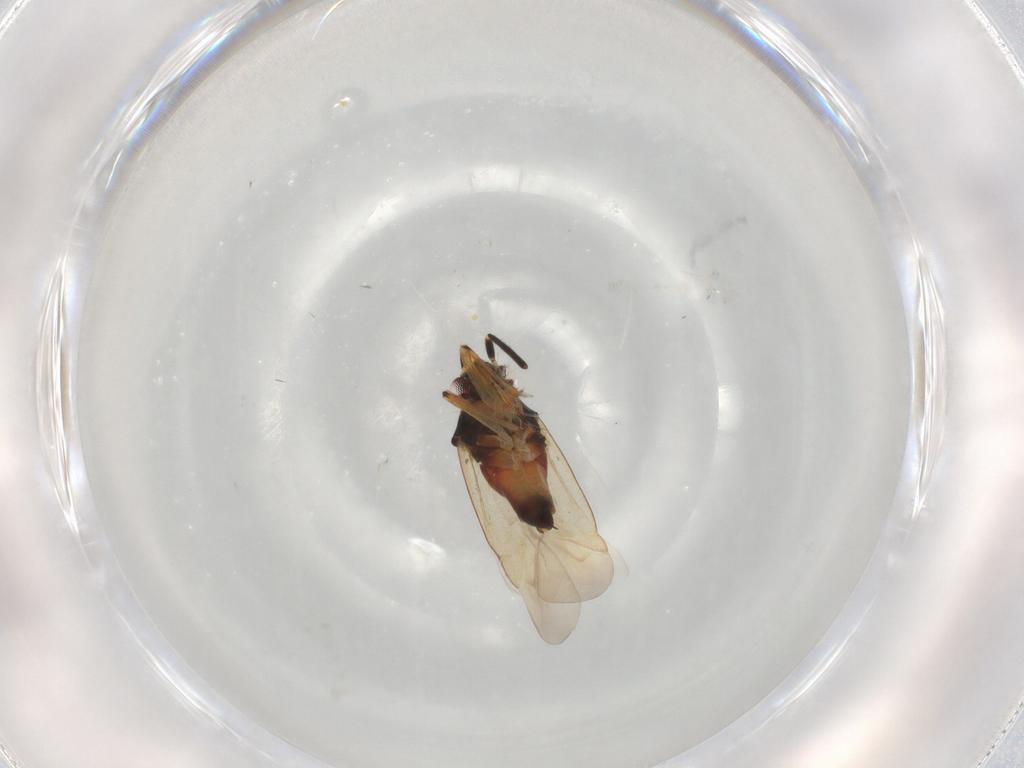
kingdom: Animalia
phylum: Arthropoda
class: Insecta
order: Hemiptera
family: Miridae
